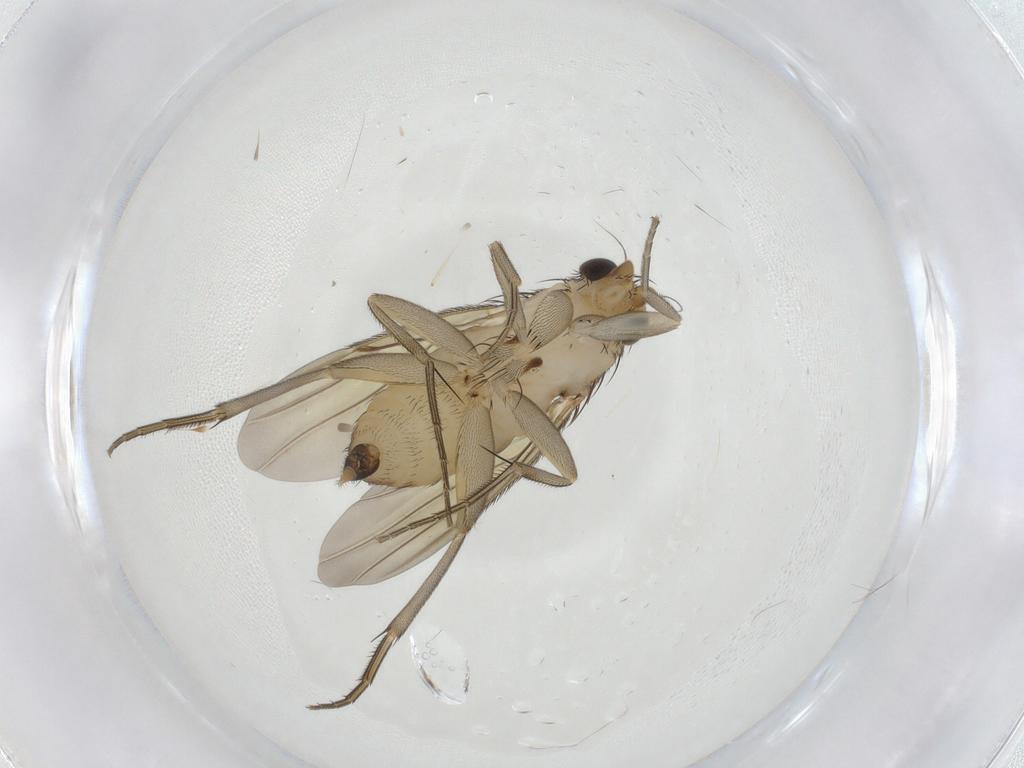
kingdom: Animalia
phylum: Arthropoda
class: Insecta
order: Diptera
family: Phoridae
